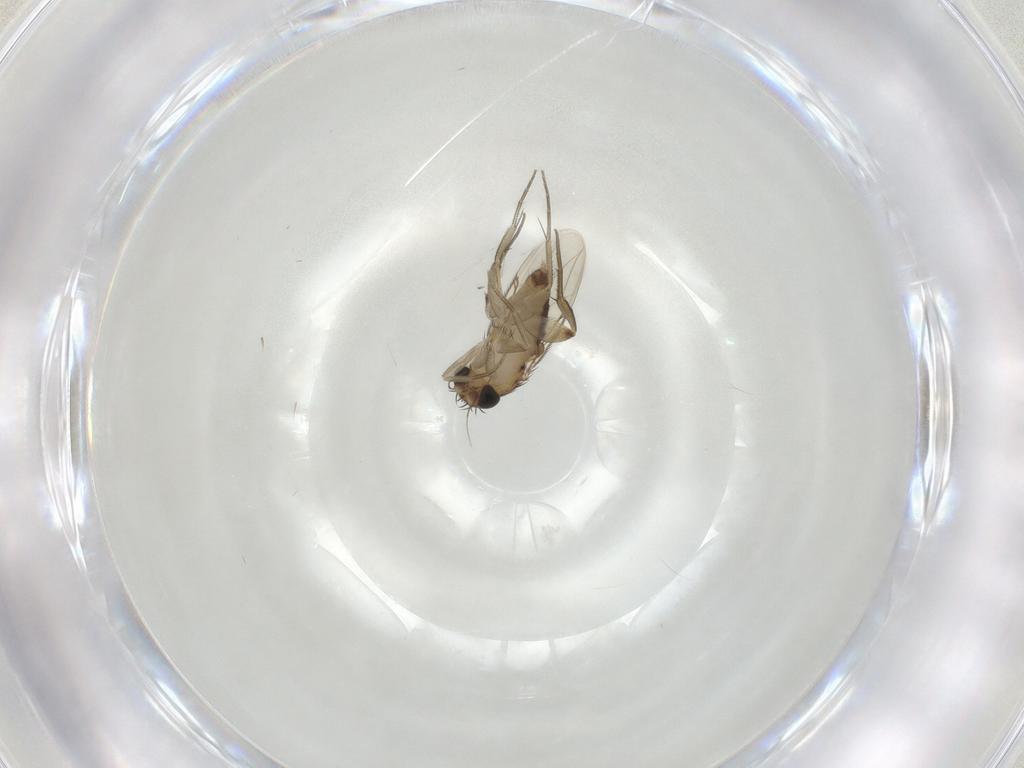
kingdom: Animalia
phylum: Arthropoda
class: Insecta
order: Diptera
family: Phoridae
